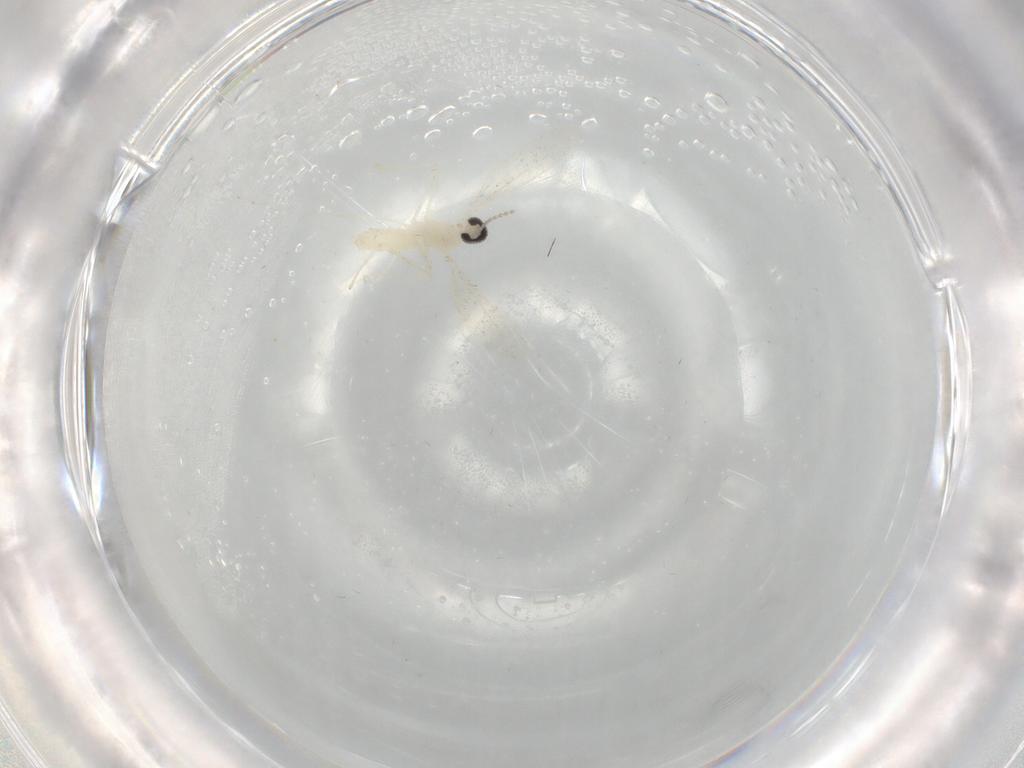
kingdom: Animalia
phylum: Arthropoda
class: Insecta
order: Diptera
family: Cecidomyiidae
